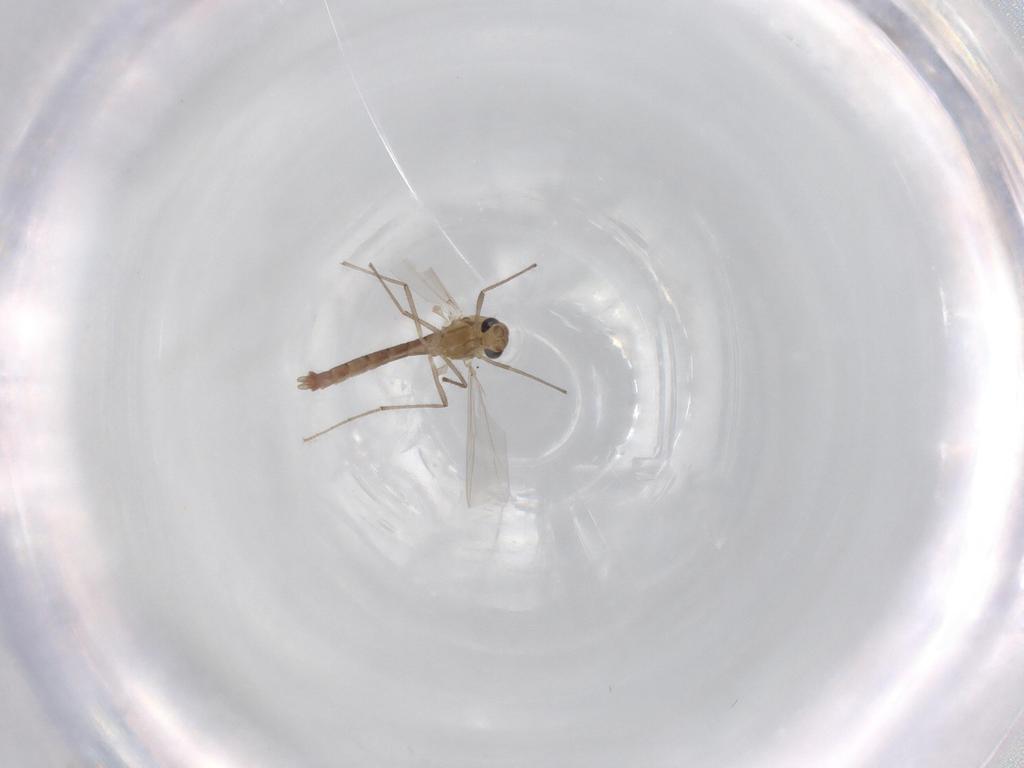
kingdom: Animalia
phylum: Arthropoda
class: Insecta
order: Diptera
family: Chironomidae
